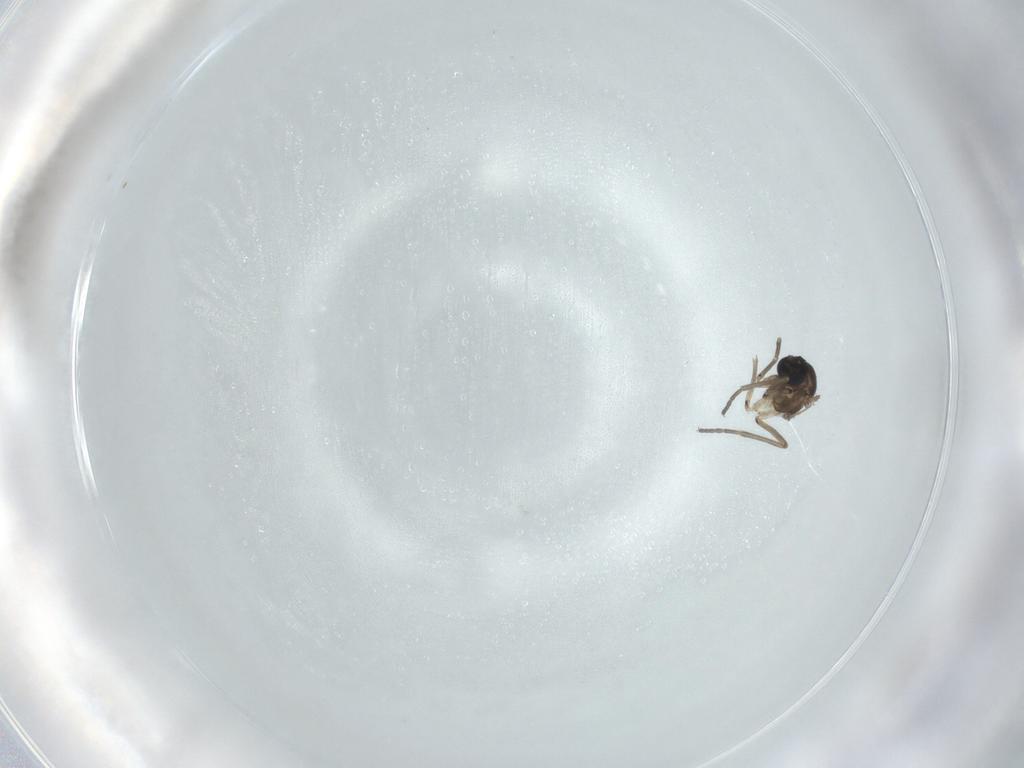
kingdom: Animalia
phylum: Arthropoda
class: Insecta
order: Diptera
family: Sciaridae
